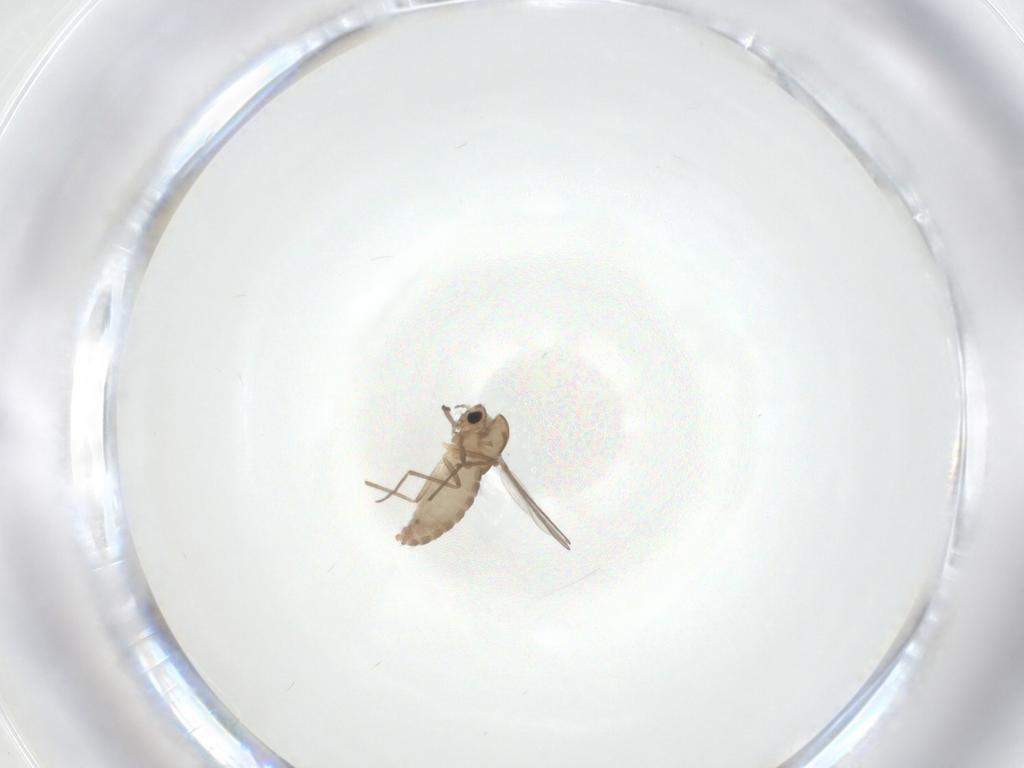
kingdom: Animalia
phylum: Arthropoda
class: Insecta
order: Diptera
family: Chironomidae
